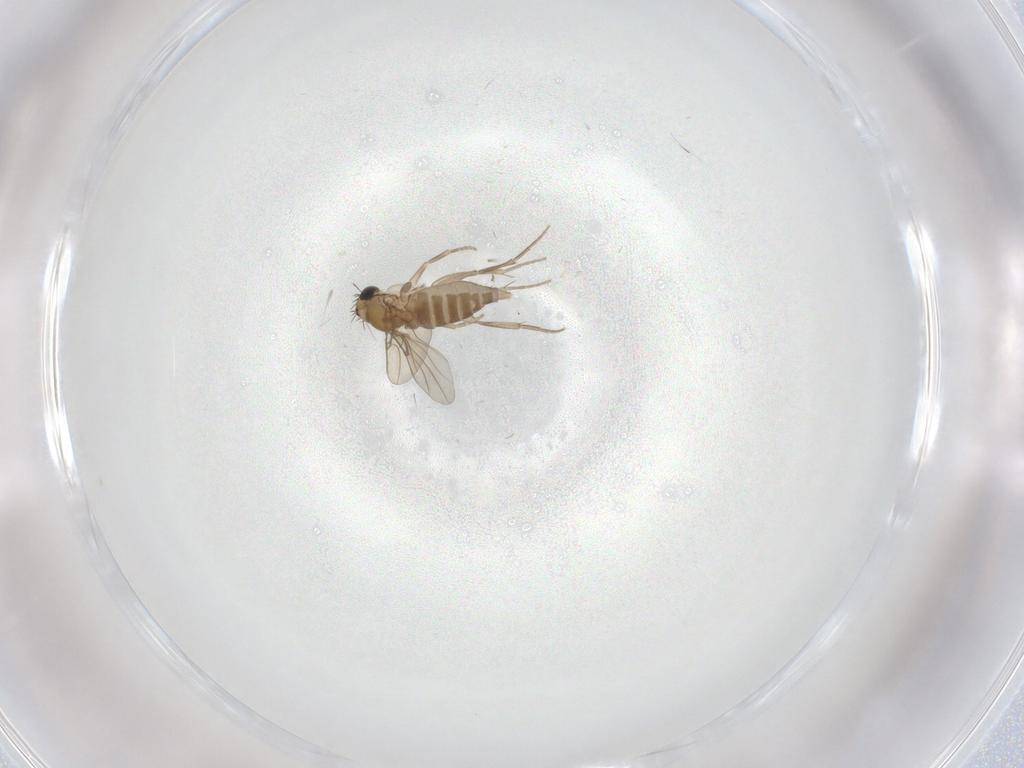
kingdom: Animalia
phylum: Arthropoda
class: Insecta
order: Diptera
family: Phoridae
